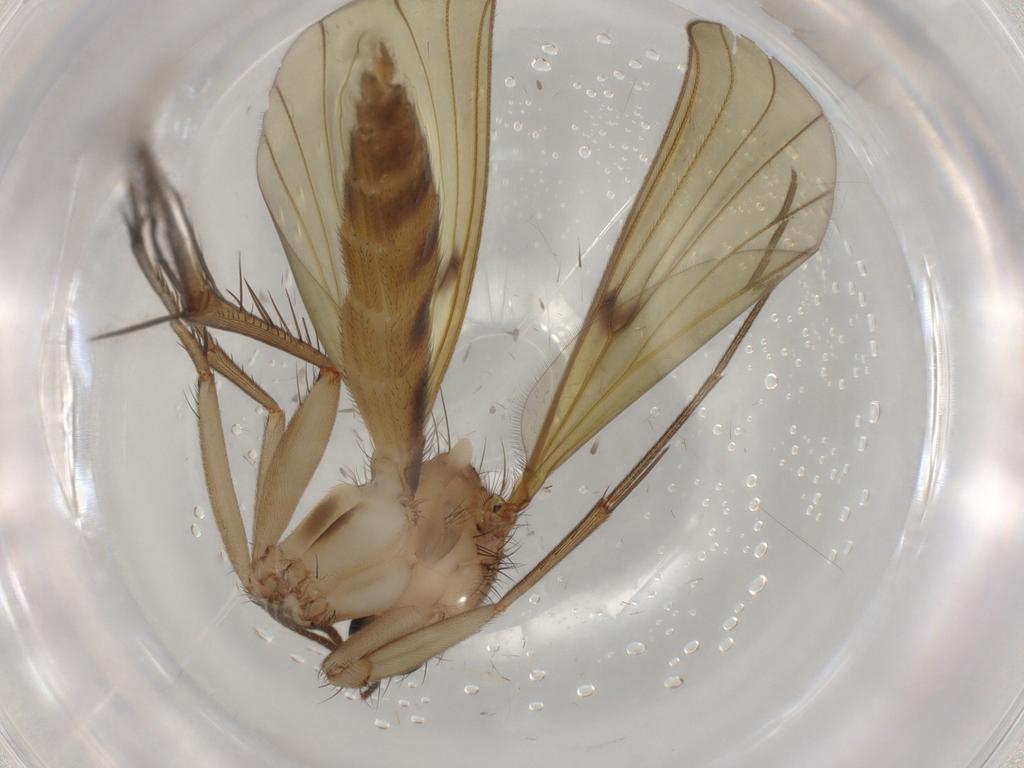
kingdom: Animalia
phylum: Arthropoda
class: Insecta
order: Diptera
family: Mycetophilidae
